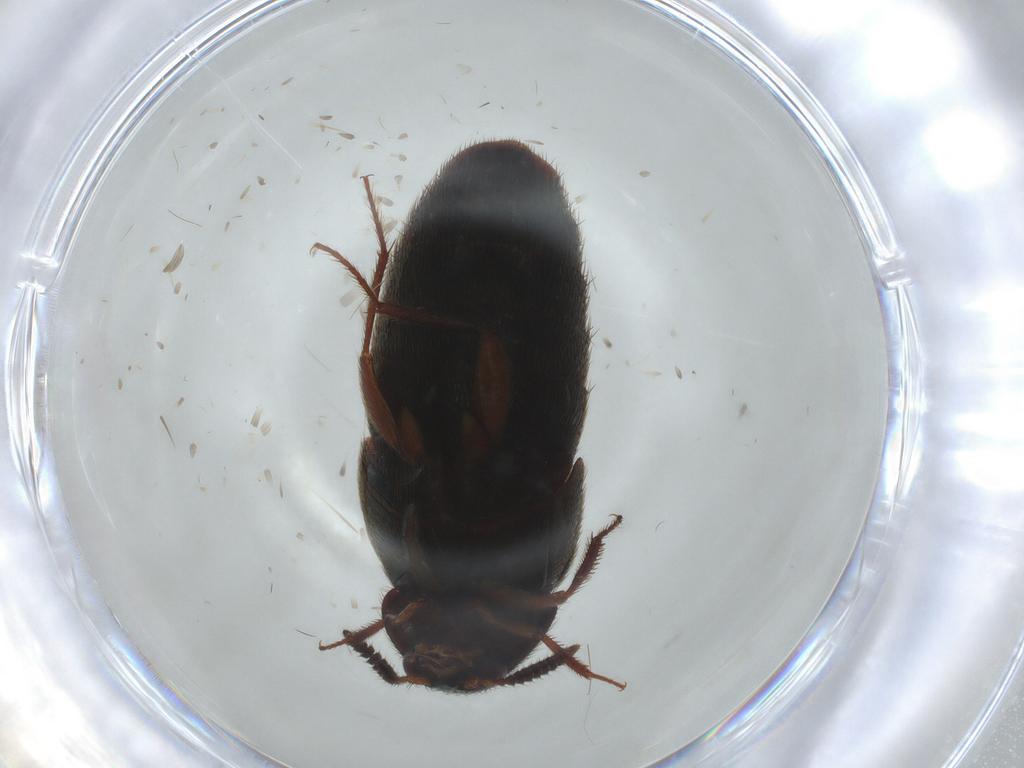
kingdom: Animalia
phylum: Arthropoda
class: Insecta
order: Coleoptera
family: Staphylinidae
